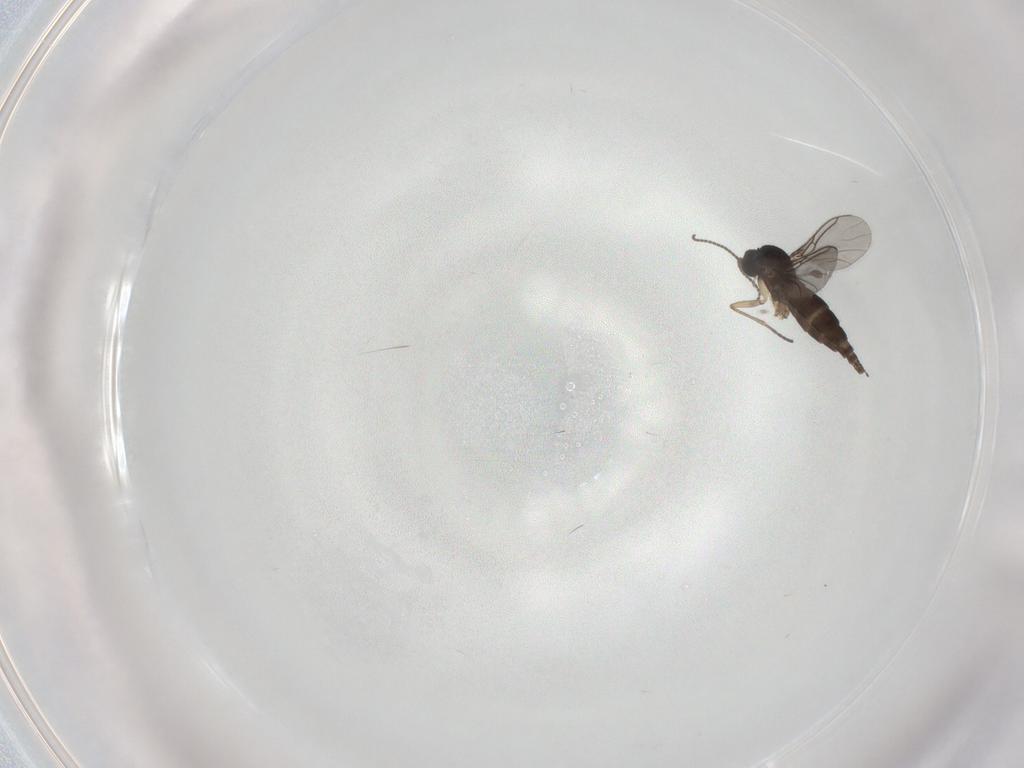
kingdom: Animalia
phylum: Arthropoda
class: Insecta
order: Diptera
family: Sciaridae
